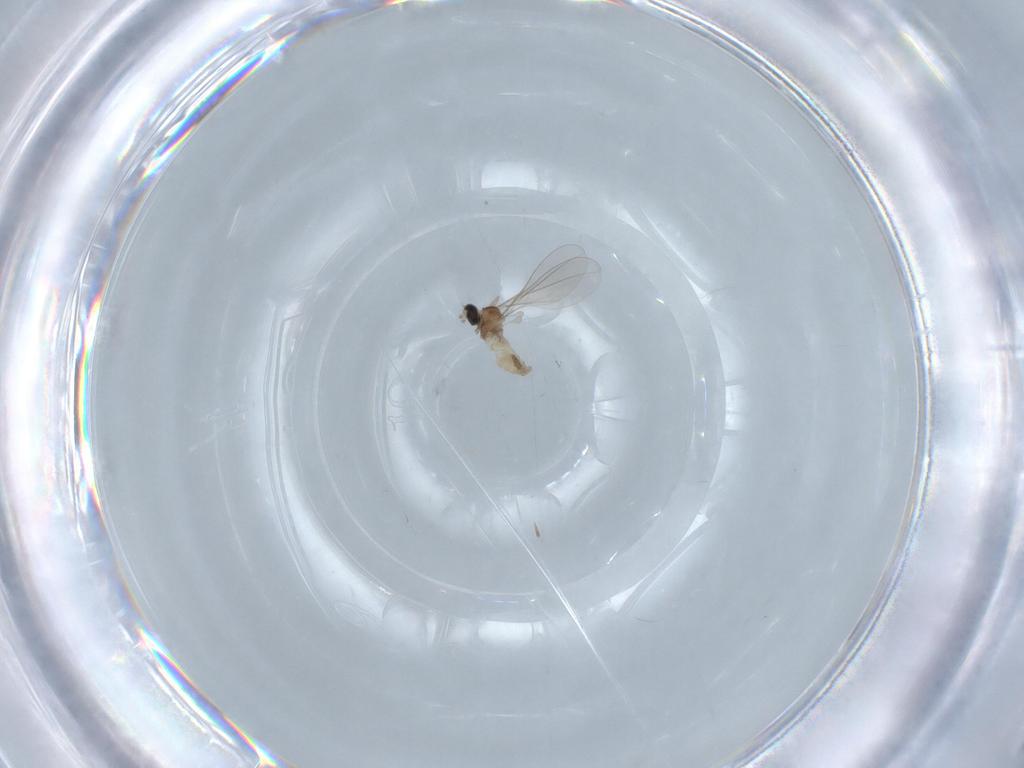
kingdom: Animalia
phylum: Arthropoda
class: Insecta
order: Diptera
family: Cecidomyiidae
